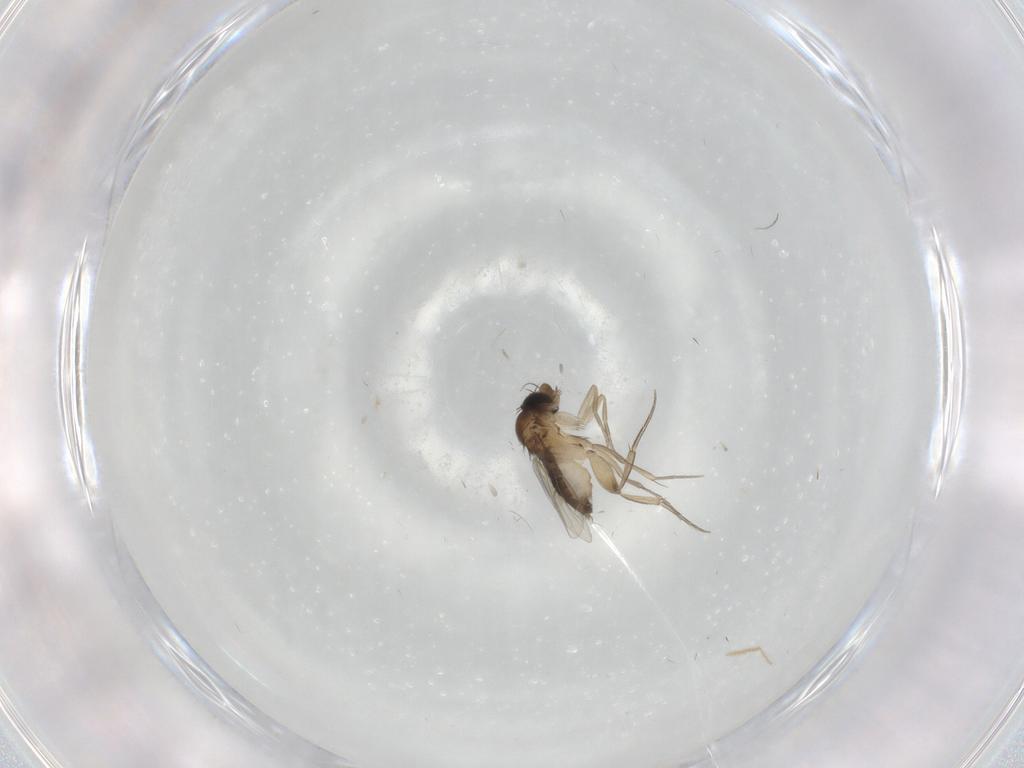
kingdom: Animalia
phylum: Arthropoda
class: Insecta
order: Diptera
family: Phoridae
